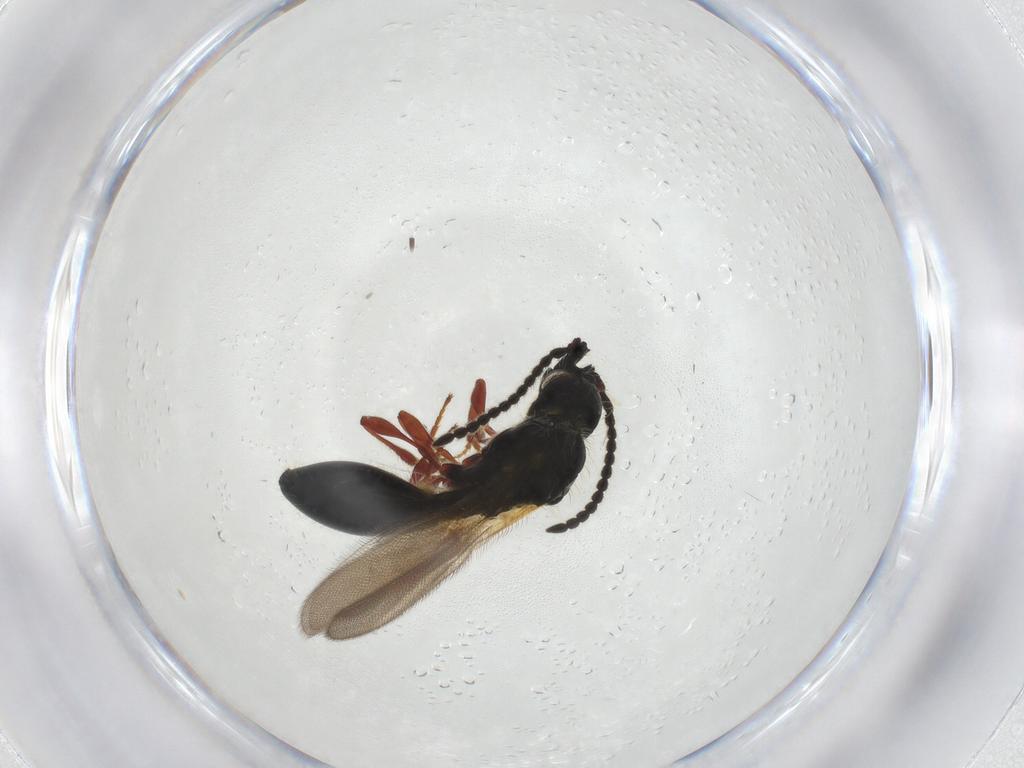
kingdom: Animalia
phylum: Arthropoda
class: Insecta
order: Hymenoptera
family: Diapriidae
